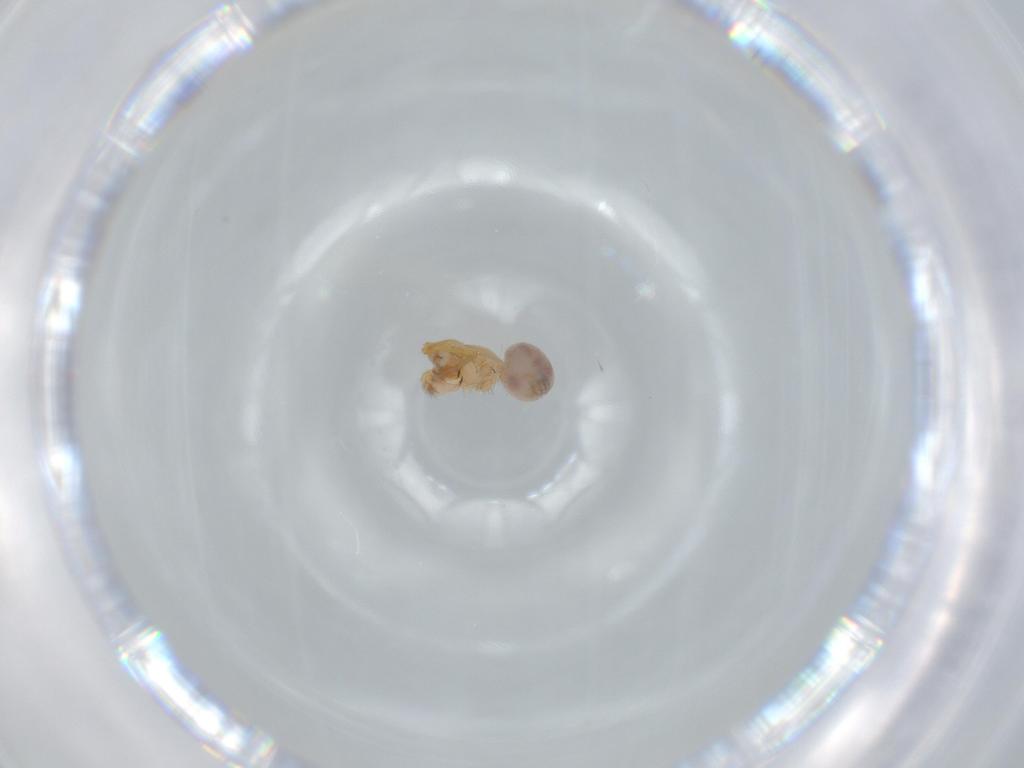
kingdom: Animalia
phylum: Arthropoda
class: Arachnida
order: Araneae
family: Oonopidae
